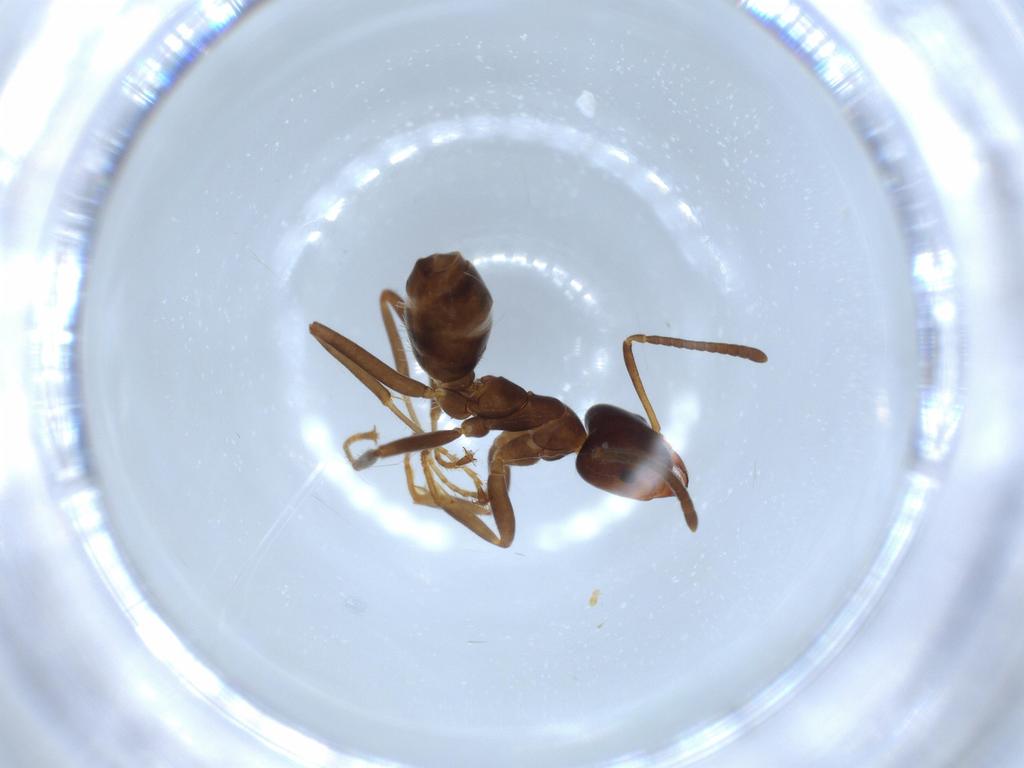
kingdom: Animalia
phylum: Arthropoda
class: Insecta
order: Hymenoptera
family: Formicidae
